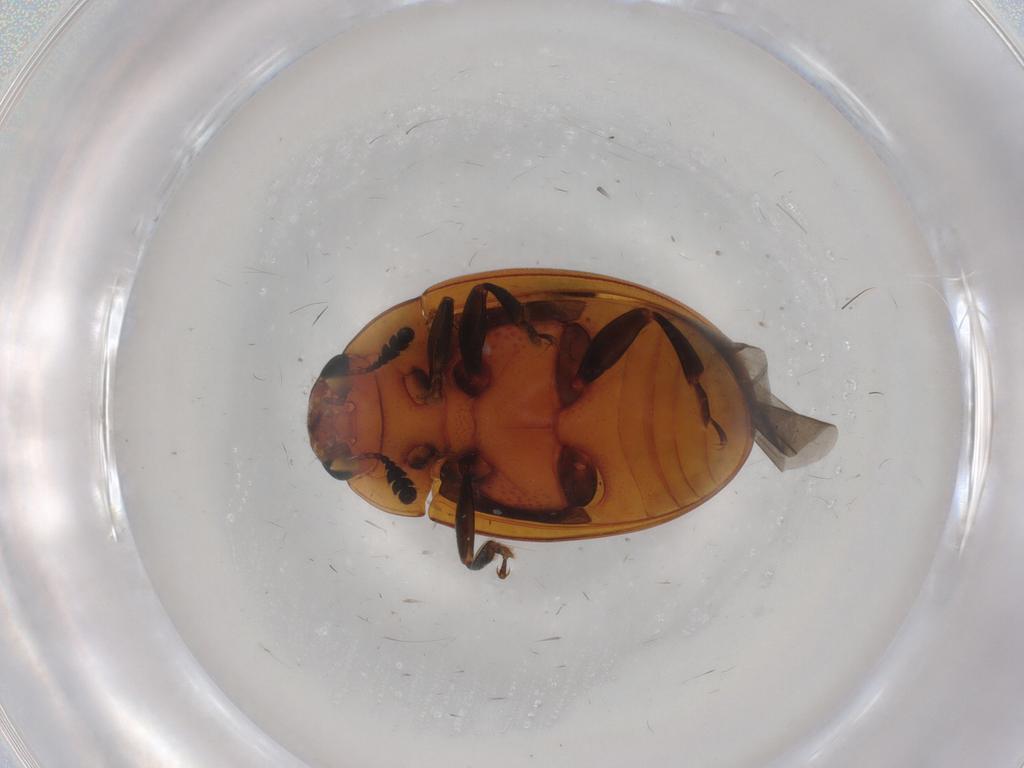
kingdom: Animalia
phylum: Arthropoda
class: Insecta
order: Coleoptera
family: Erotylidae
